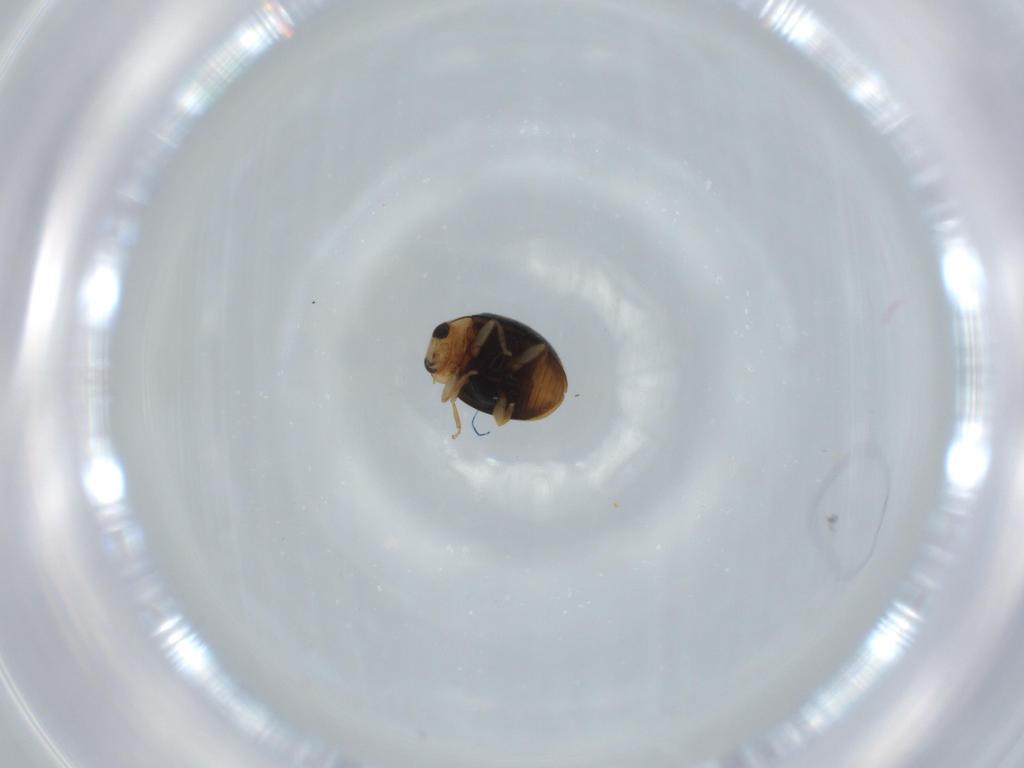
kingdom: Animalia
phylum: Arthropoda
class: Insecta
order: Coleoptera
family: Coccinellidae
